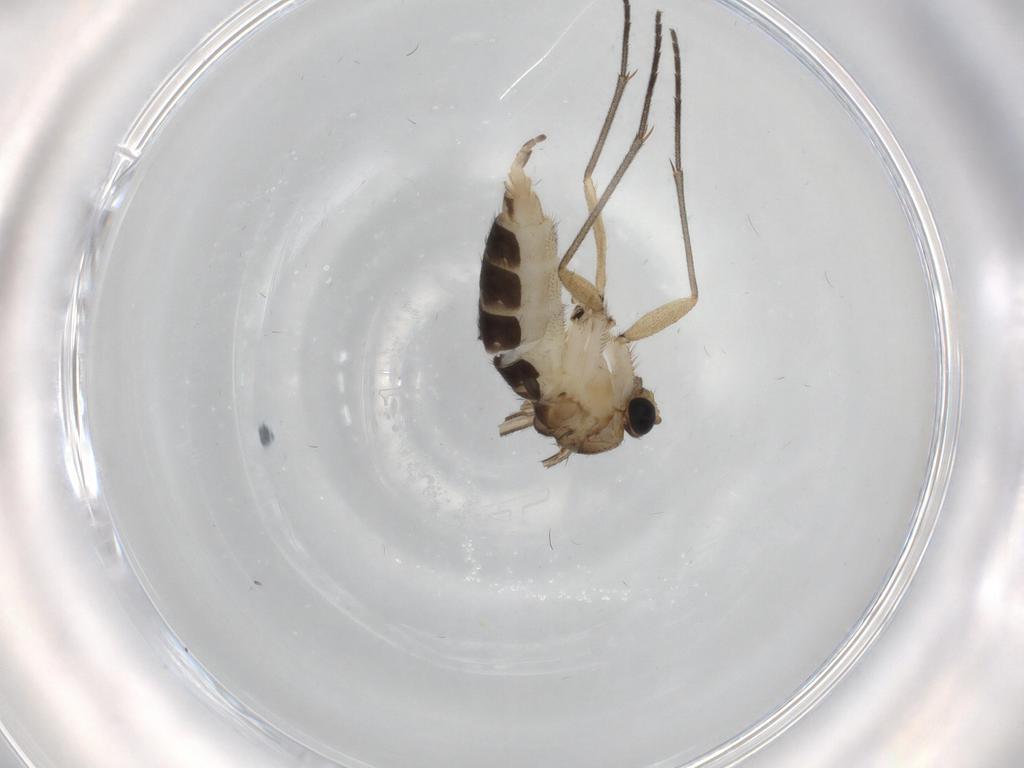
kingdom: Animalia
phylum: Arthropoda
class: Insecta
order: Diptera
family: Sciaridae
